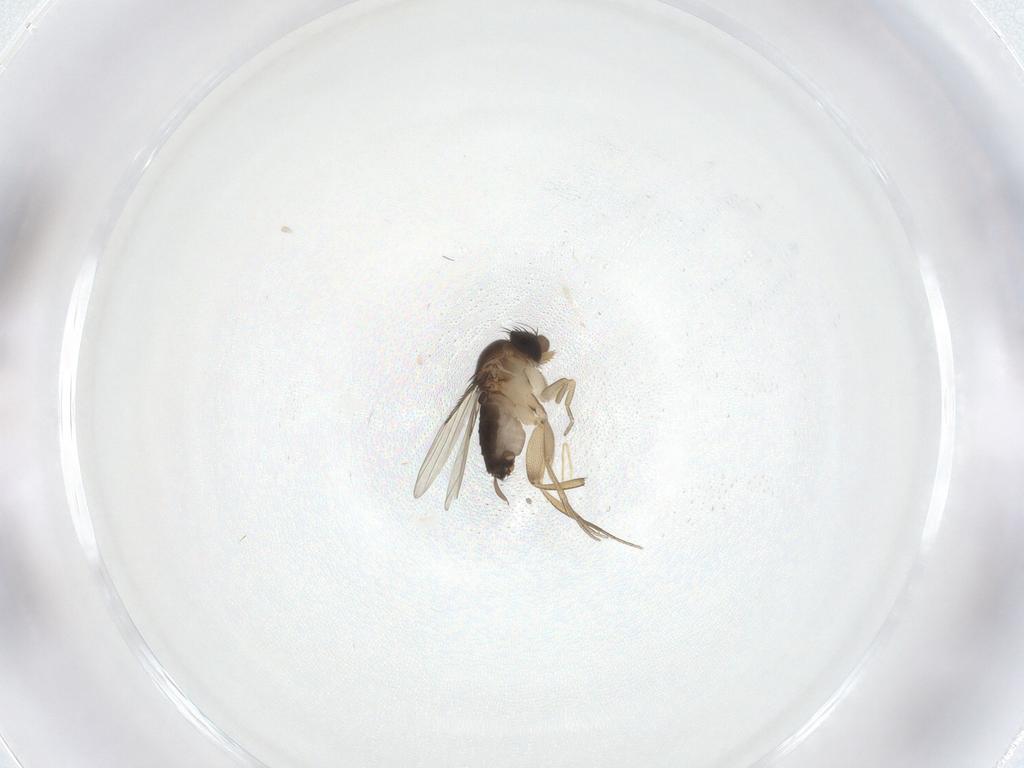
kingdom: Animalia
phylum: Arthropoda
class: Insecta
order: Diptera
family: Phoridae
